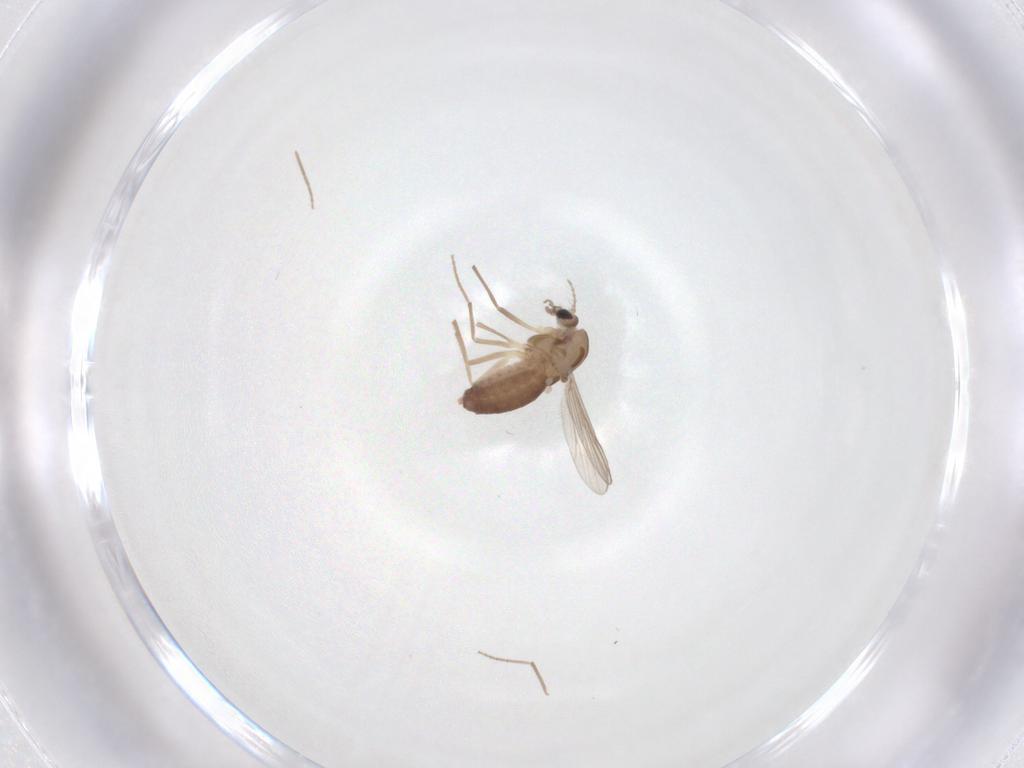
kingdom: Animalia
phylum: Arthropoda
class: Insecta
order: Diptera
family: Chironomidae
